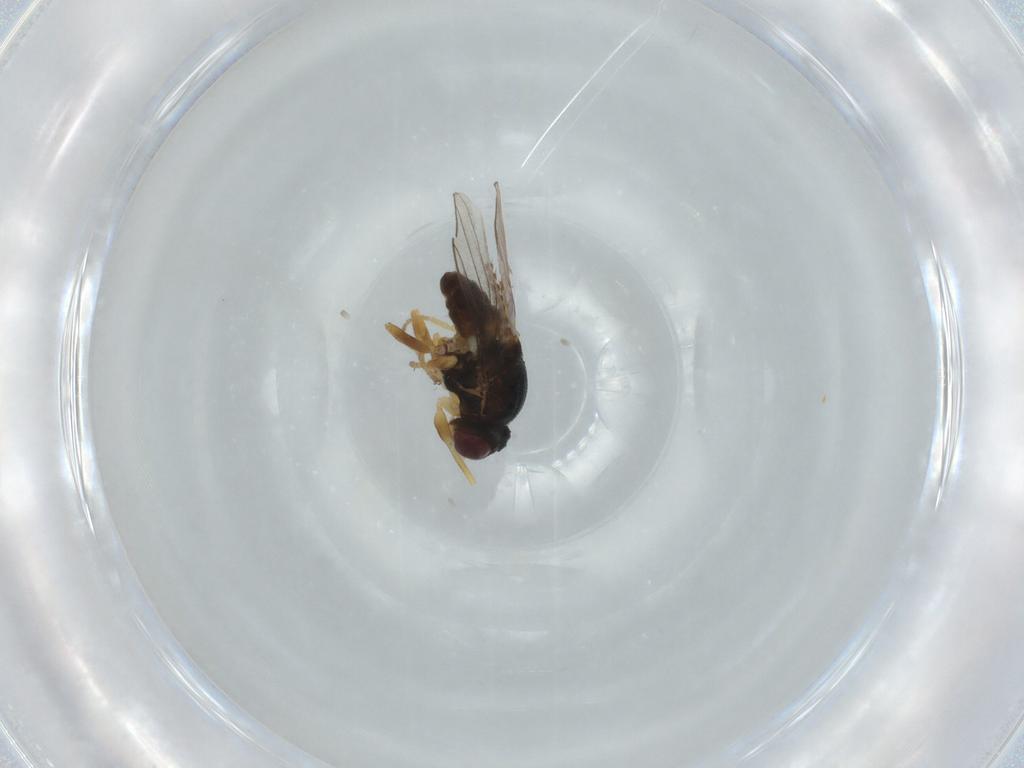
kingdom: Animalia
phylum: Arthropoda
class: Insecta
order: Diptera
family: Chloropidae
